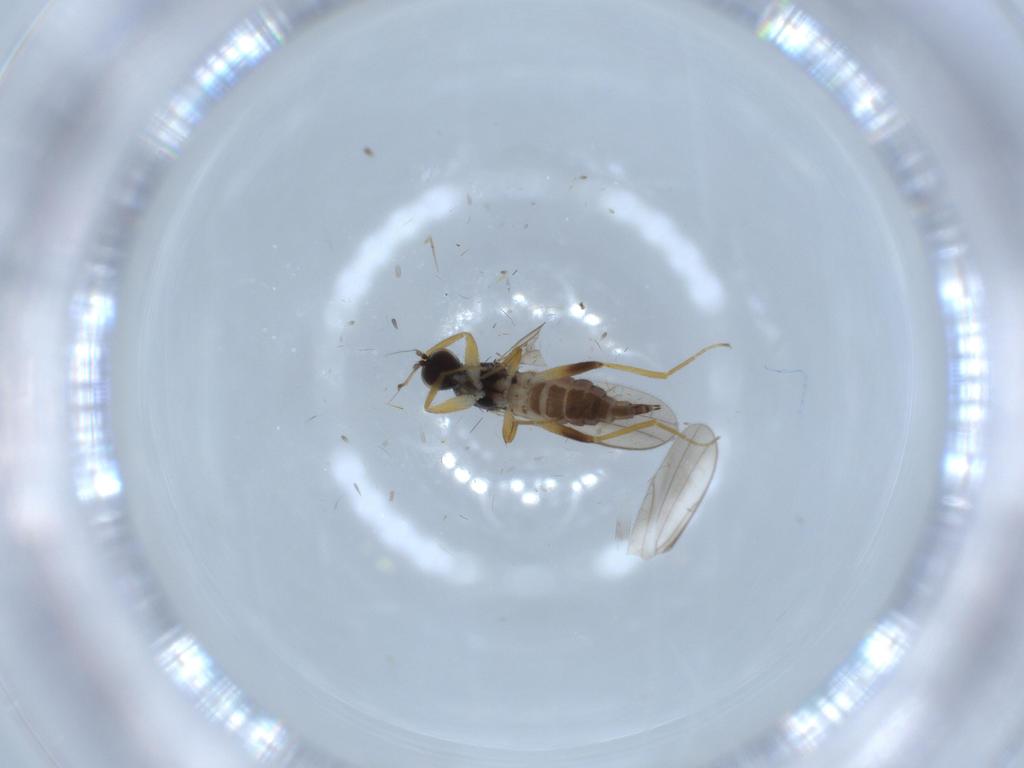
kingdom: Animalia
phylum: Arthropoda
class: Insecta
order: Diptera
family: Hybotidae
